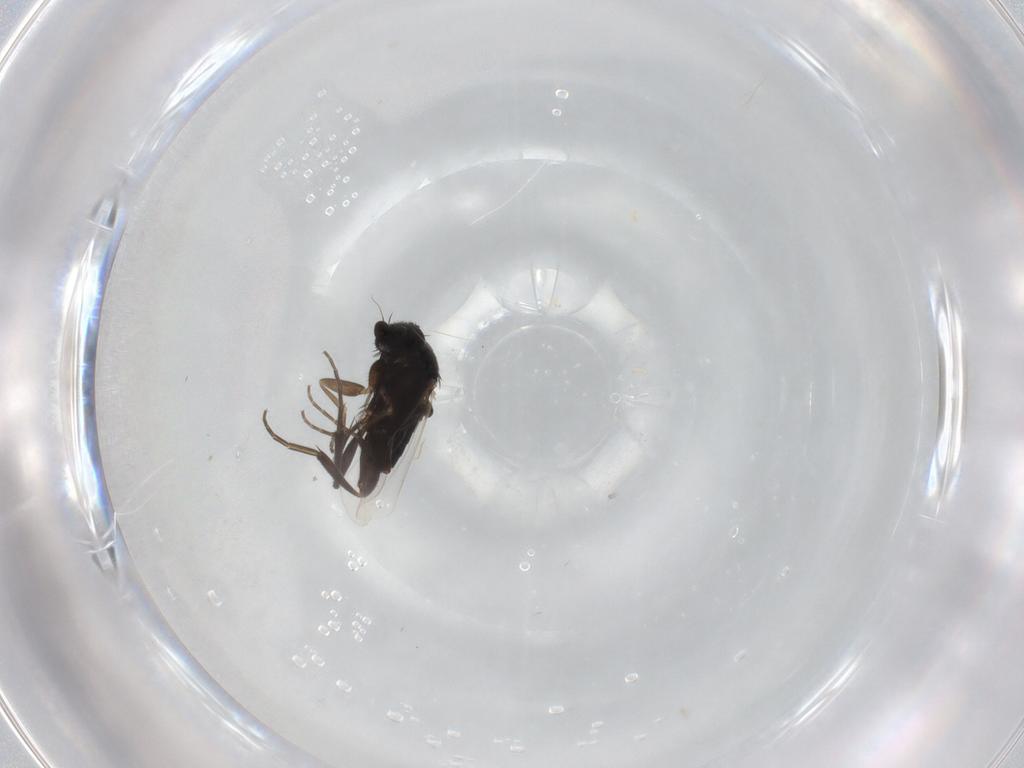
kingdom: Animalia
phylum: Arthropoda
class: Insecta
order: Diptera
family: Phoridae
